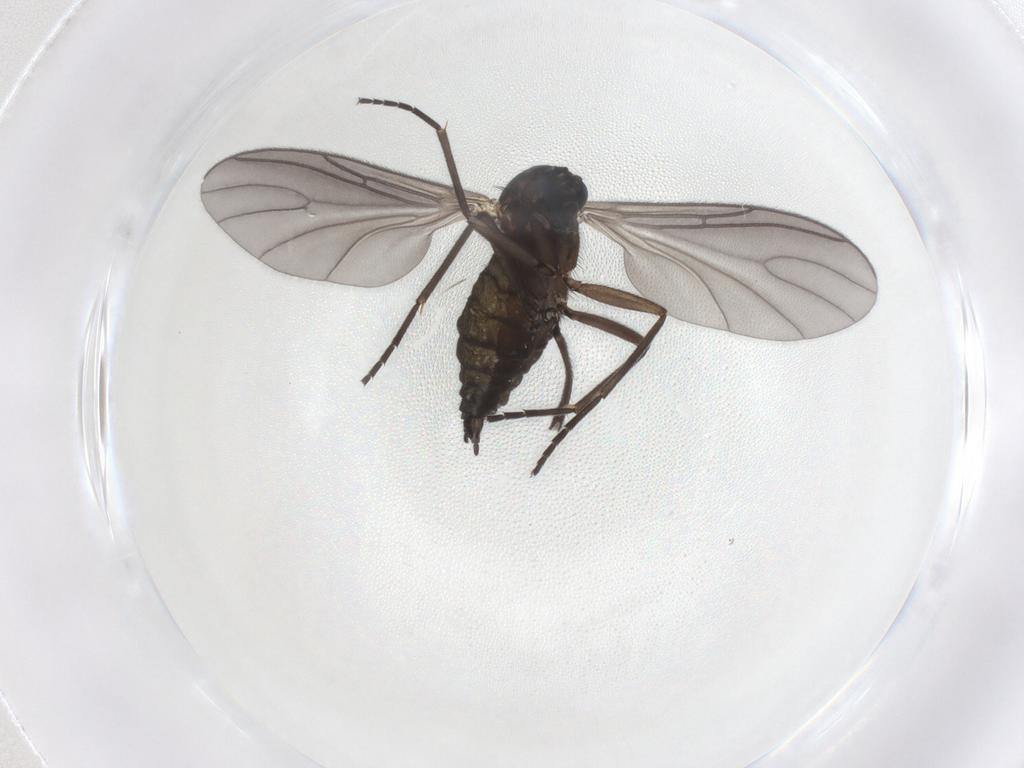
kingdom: Animalia
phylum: Arthropoda
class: Insecta
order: Diptera
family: Sciaridae
